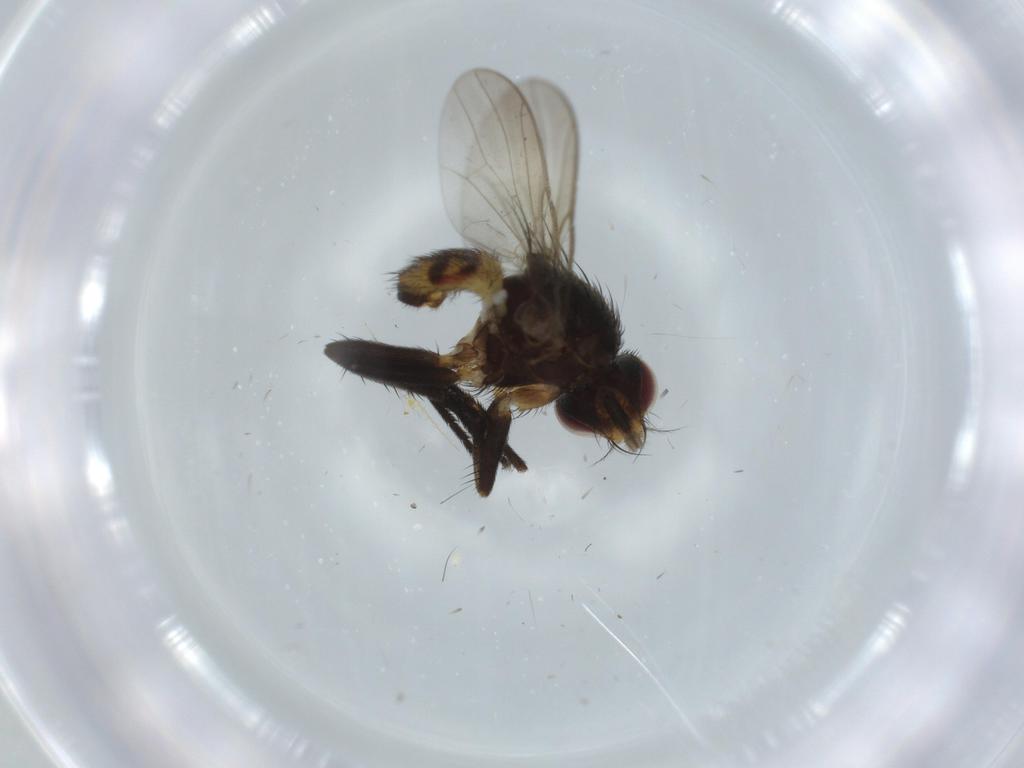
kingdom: Animalia
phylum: Arthropoda
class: Insecta
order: Diptera
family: Anthomyiidae
